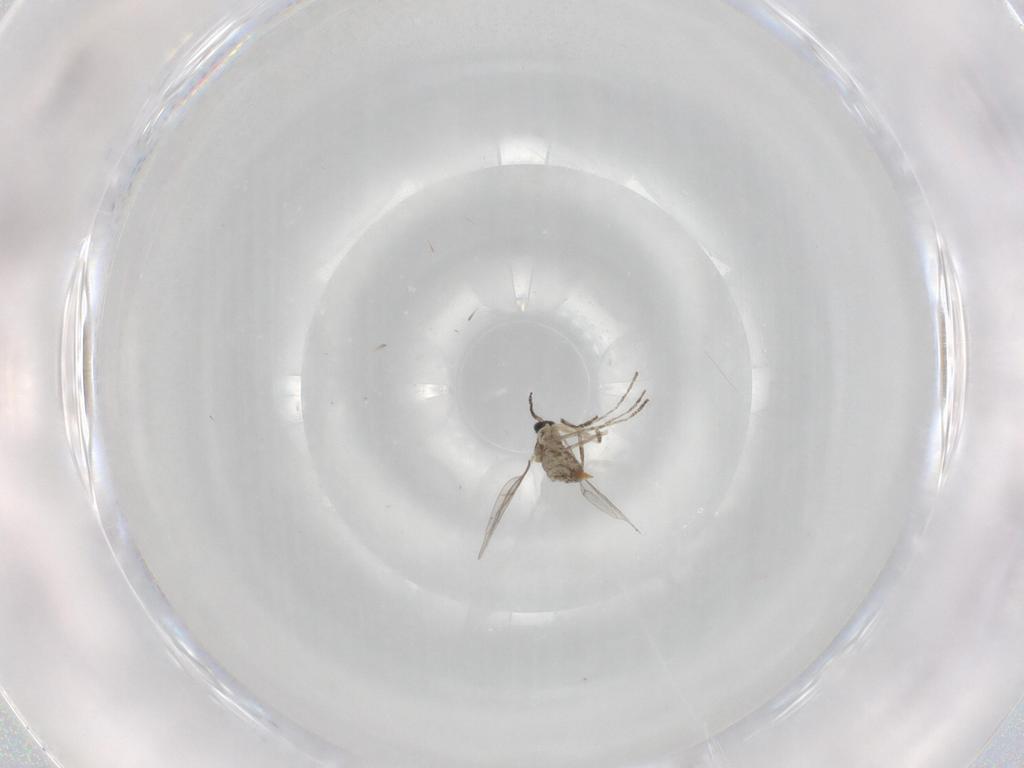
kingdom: Animalia
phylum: Arthropoda
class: Insecta
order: Diptera
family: Cecidomyiidae
